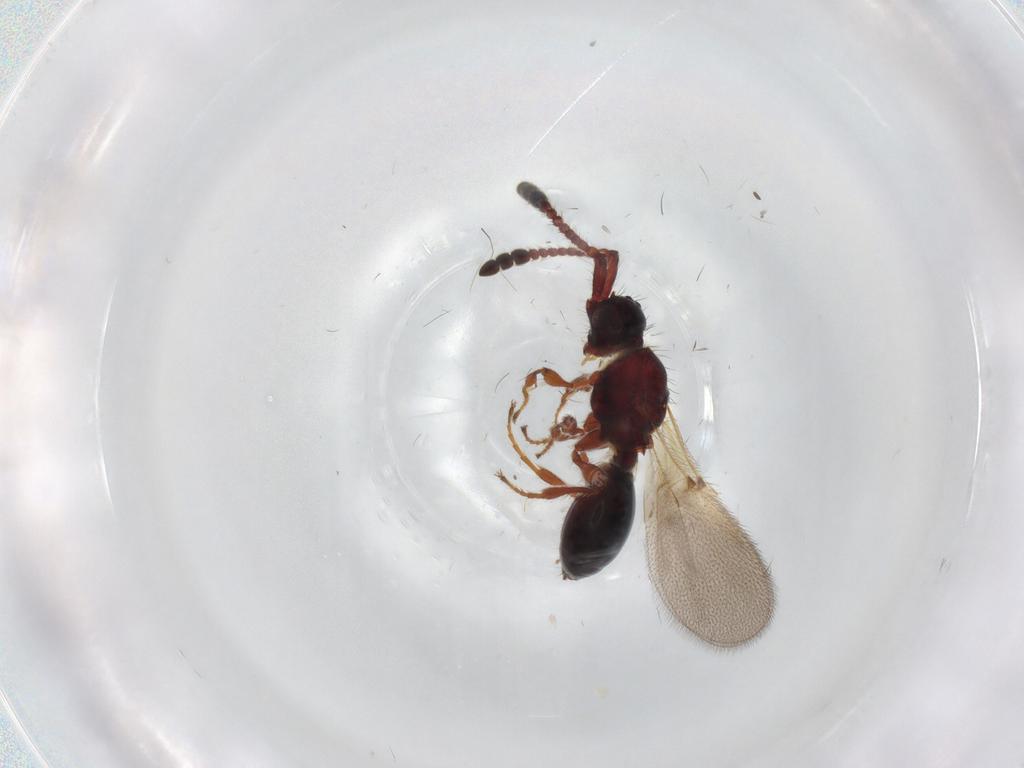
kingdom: Animalia
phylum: Arthropoda
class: Insecta
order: Hymenoptera
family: Diapriidae
